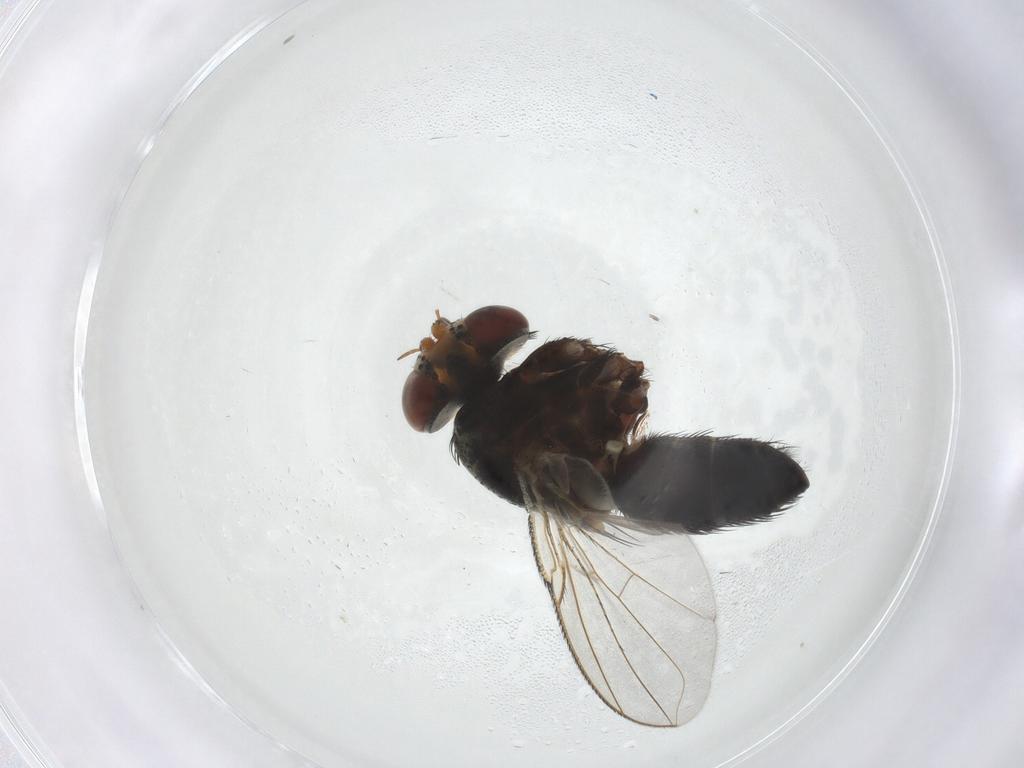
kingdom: Animalia
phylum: Arthropoda
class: Insecta
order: Diptera
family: Tachinidae
